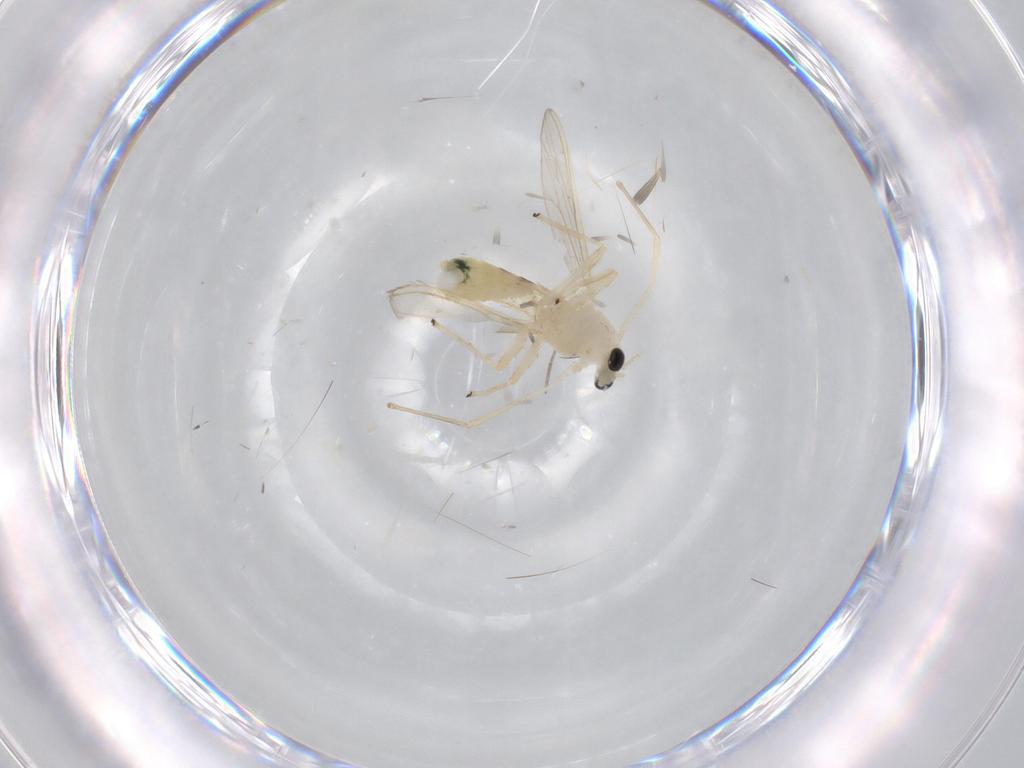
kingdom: Animalia
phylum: Arthropoda
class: Insecta
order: Diptera
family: Chironomidae
